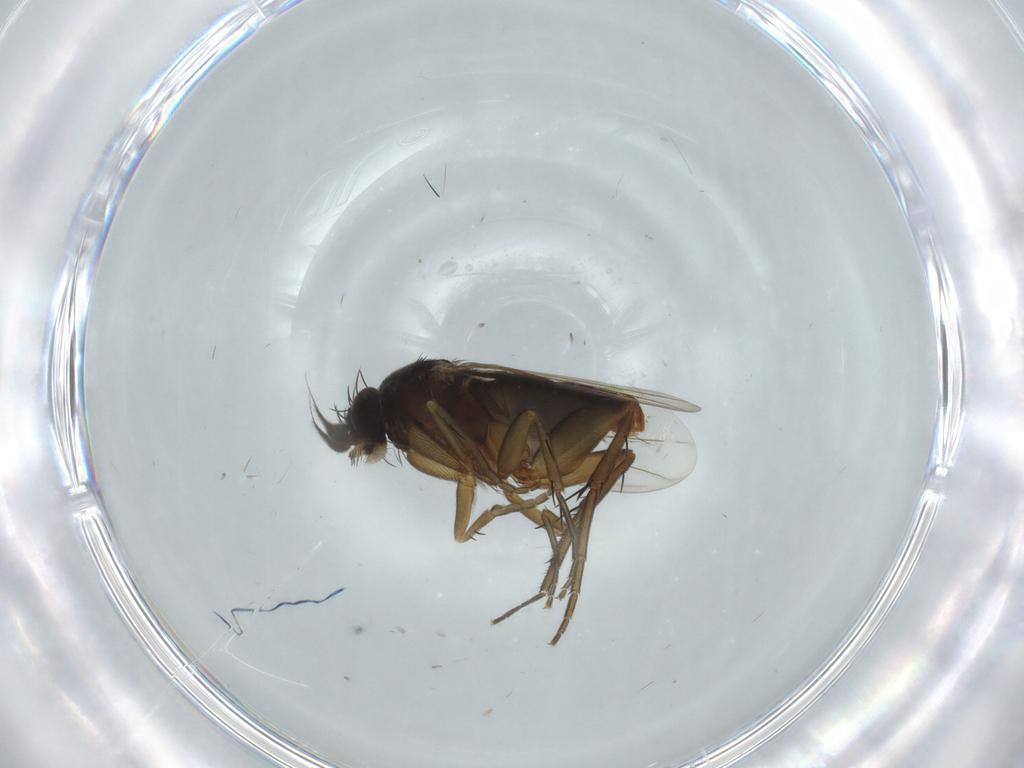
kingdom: Animalia
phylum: Arthropoda
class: Insecta
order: Diptera
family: Phoridae
